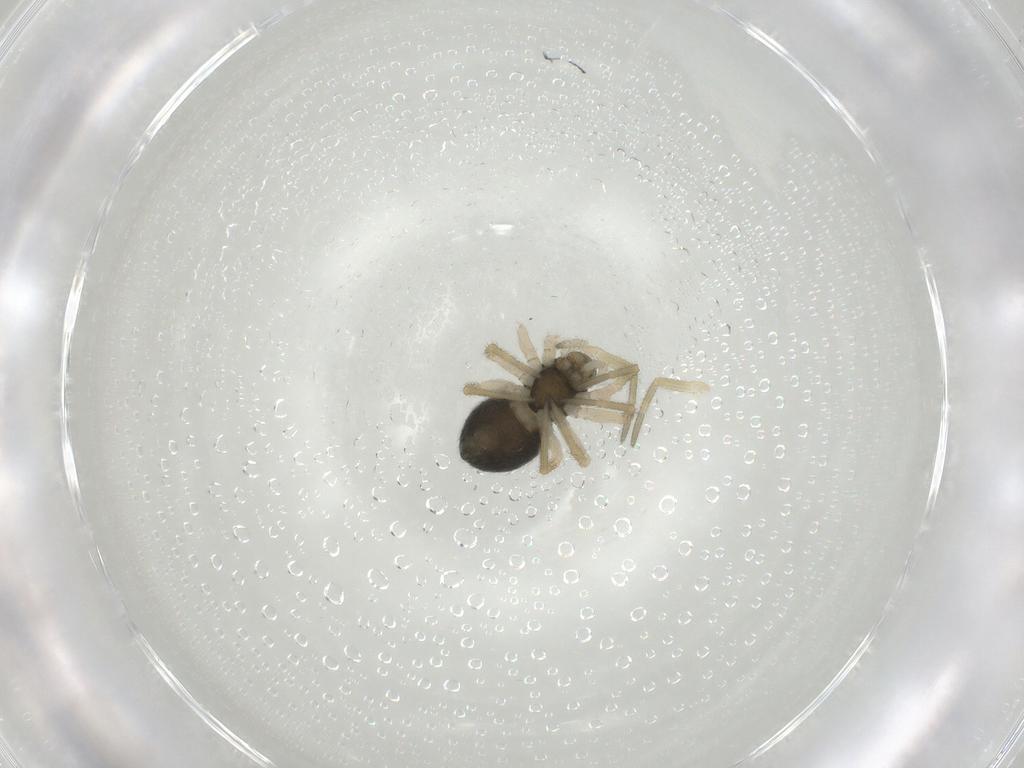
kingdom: Animalia
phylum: Arthropoda
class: Arachnida
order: Araneae
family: Linyphiidae
